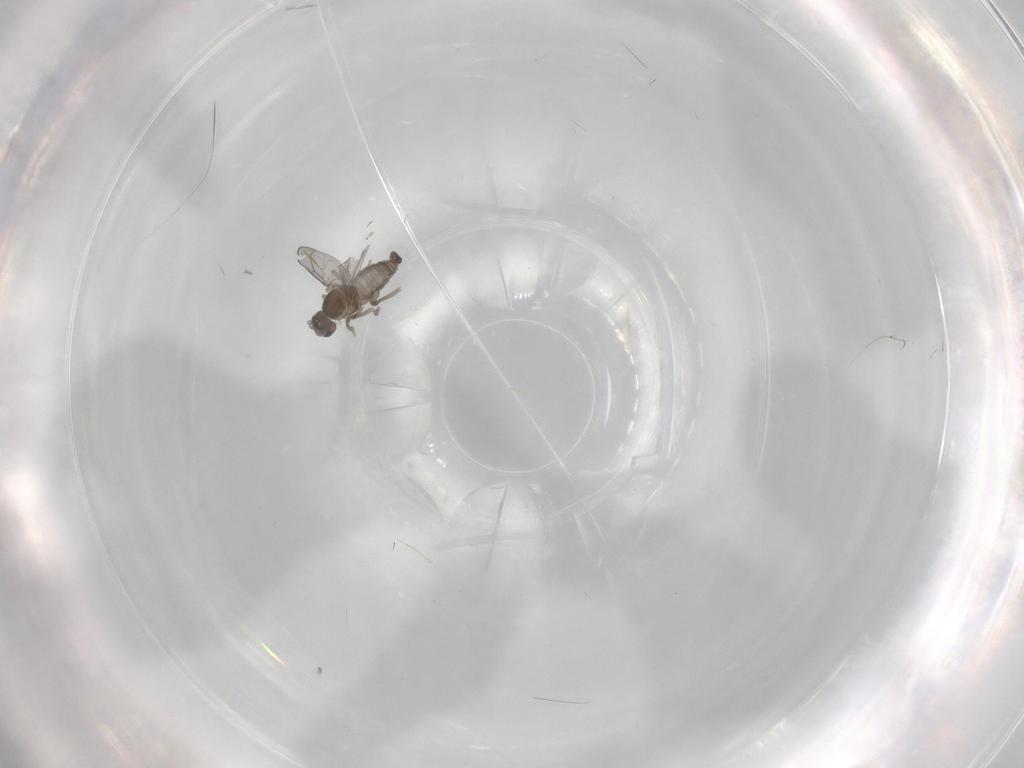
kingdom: Animalia
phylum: Arthropoda
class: Insecta
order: Diptera
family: Cecidomyiidae
